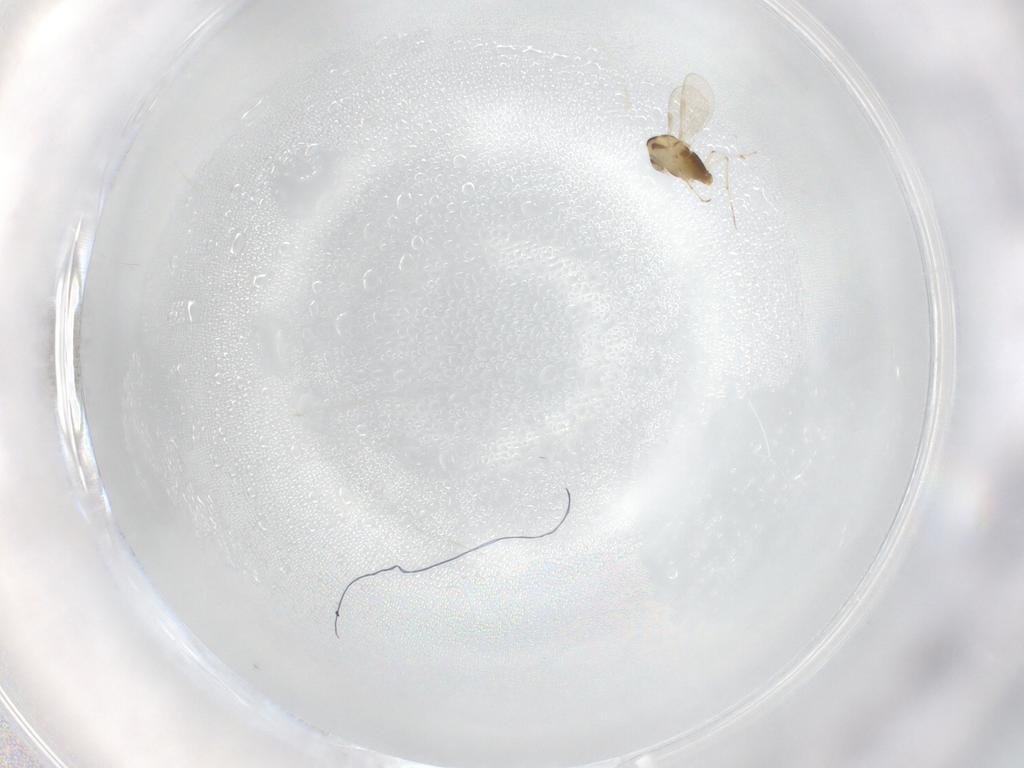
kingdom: Animalia
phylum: Arthropoda
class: Insecta
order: Diptera
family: Chironomidae
